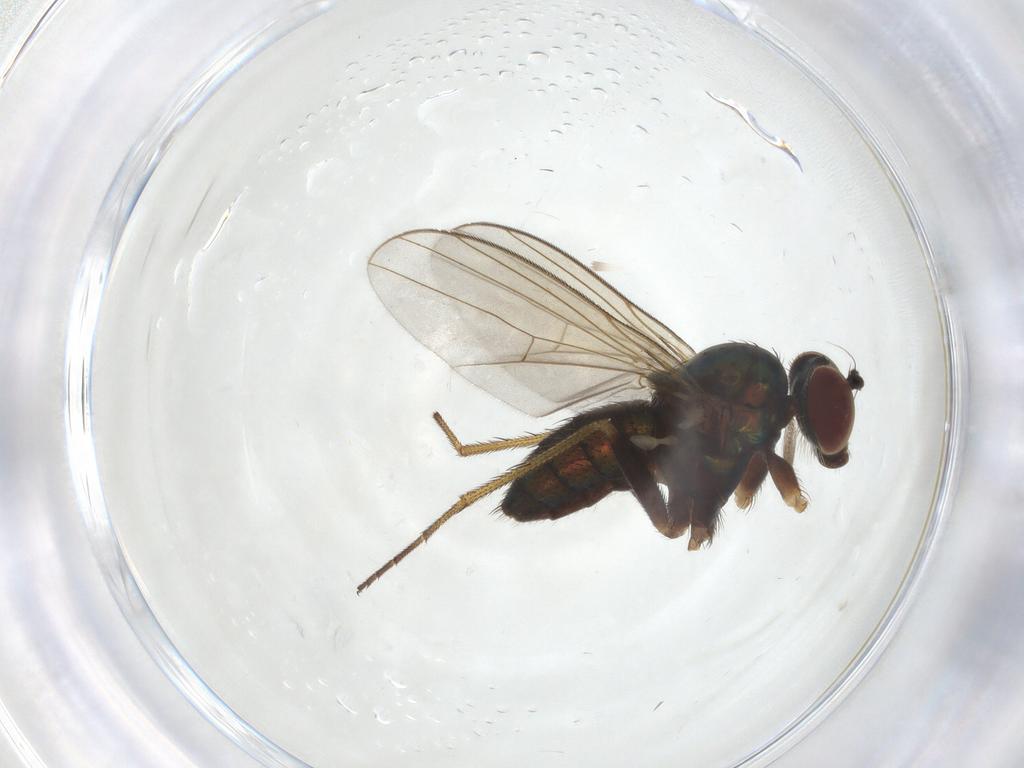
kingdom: Animalia
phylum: Arthropoda
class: Insecta
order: Diptera
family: Dolichopodidae
